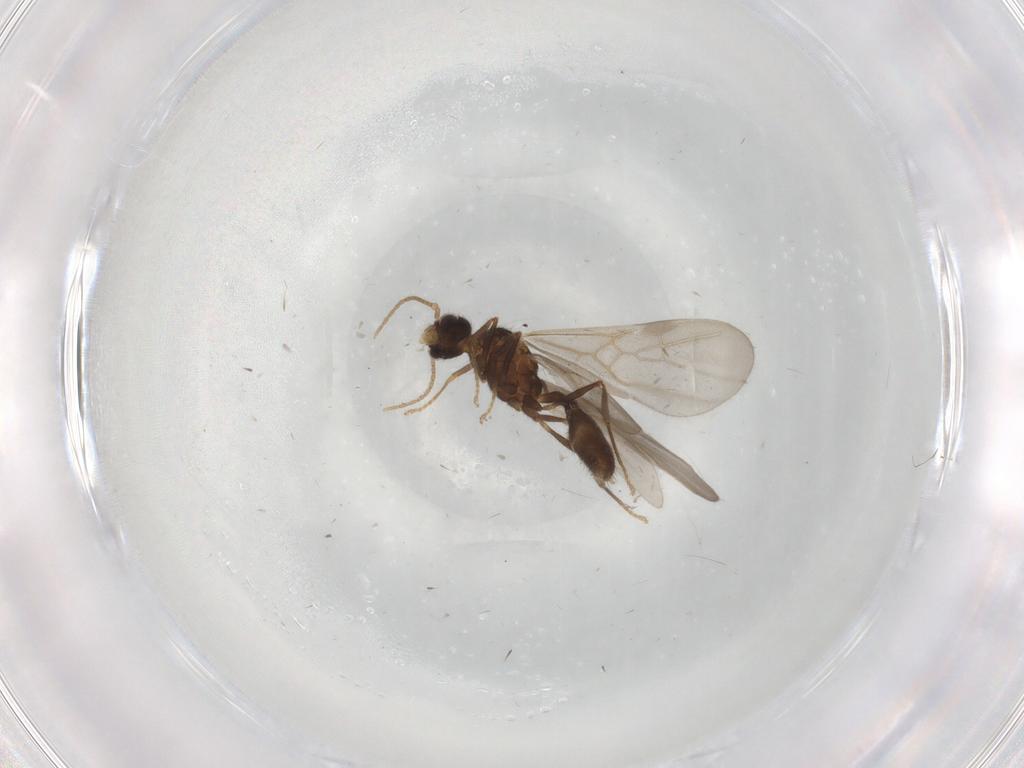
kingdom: Animalia
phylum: Arthropoda
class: Insecta
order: Hymenoptera
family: Formicidae
